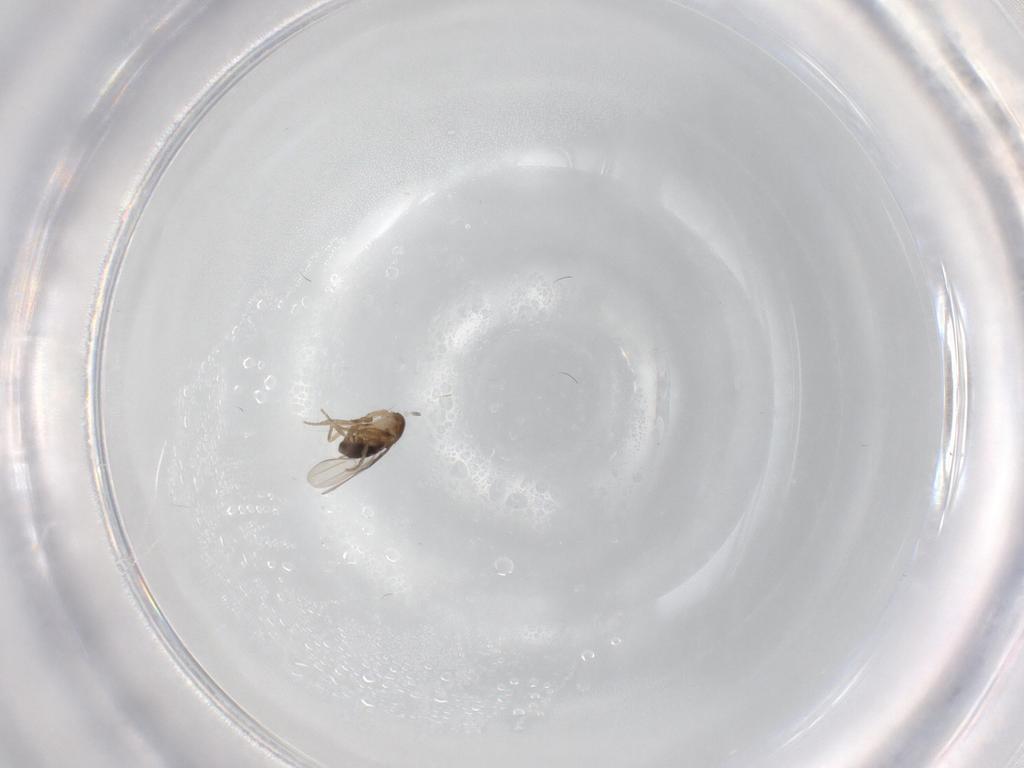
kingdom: Animalia
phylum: Arthropoda
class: Insecta
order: Diptera
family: Phoridae
